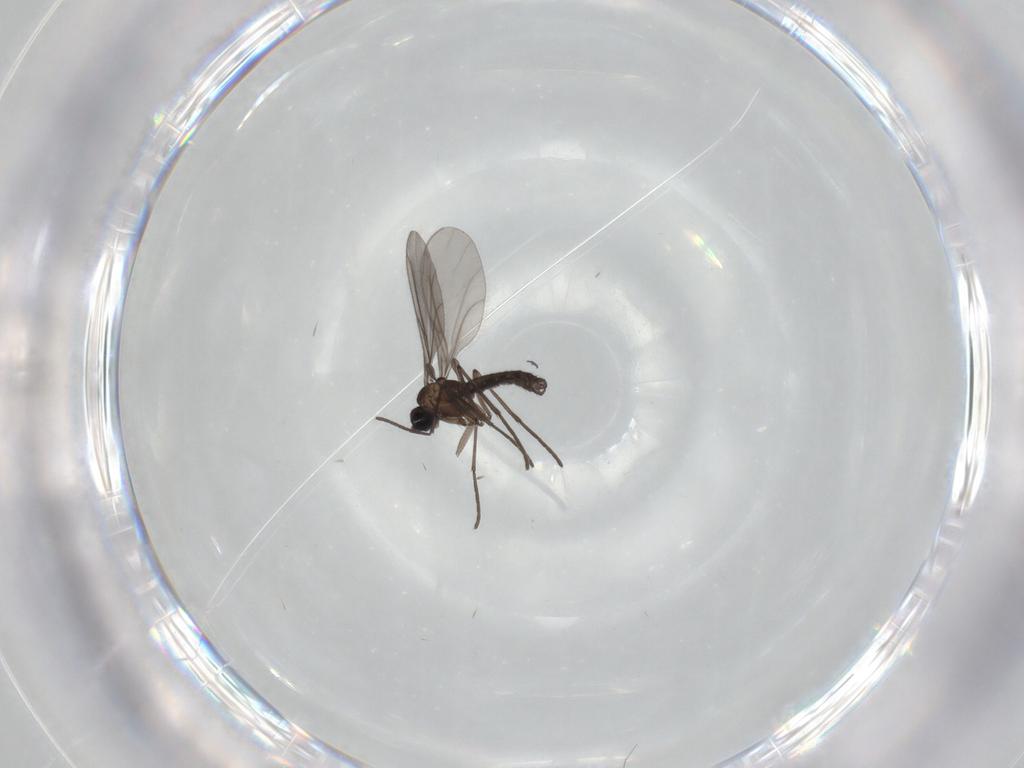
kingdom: Animalia
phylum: Arthropoda
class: Insecta
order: Diptera
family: Sciaridae
